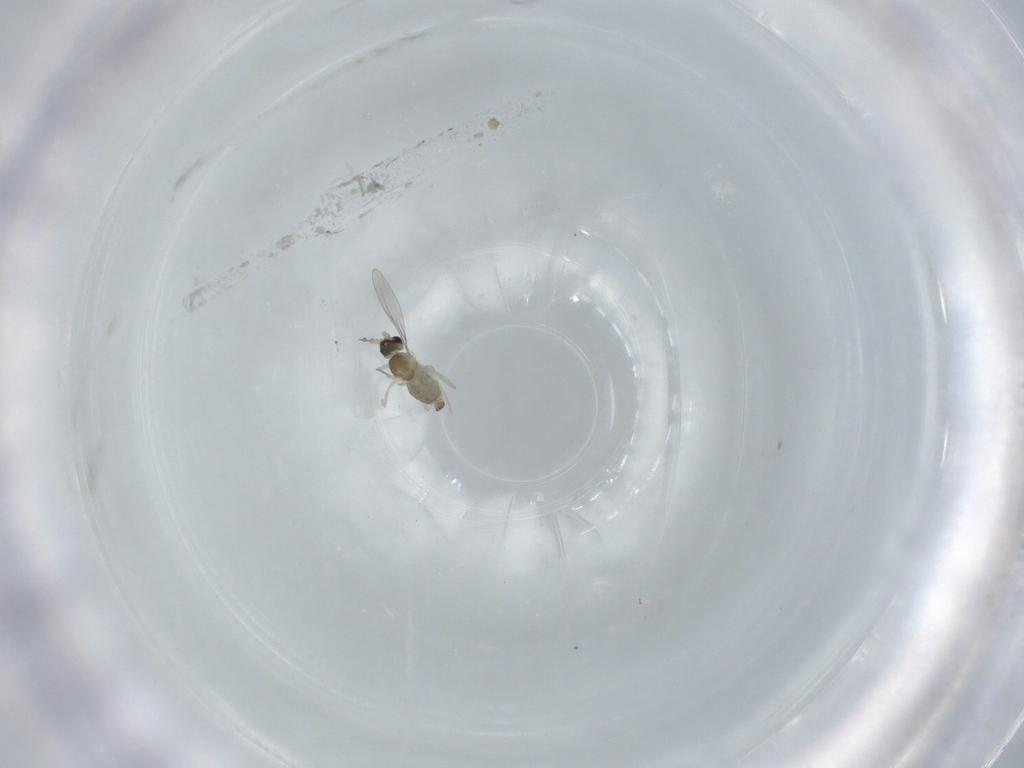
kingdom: Animalia
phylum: Arthropoda
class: Insecta
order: Diptera
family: Cecidomyiidae
